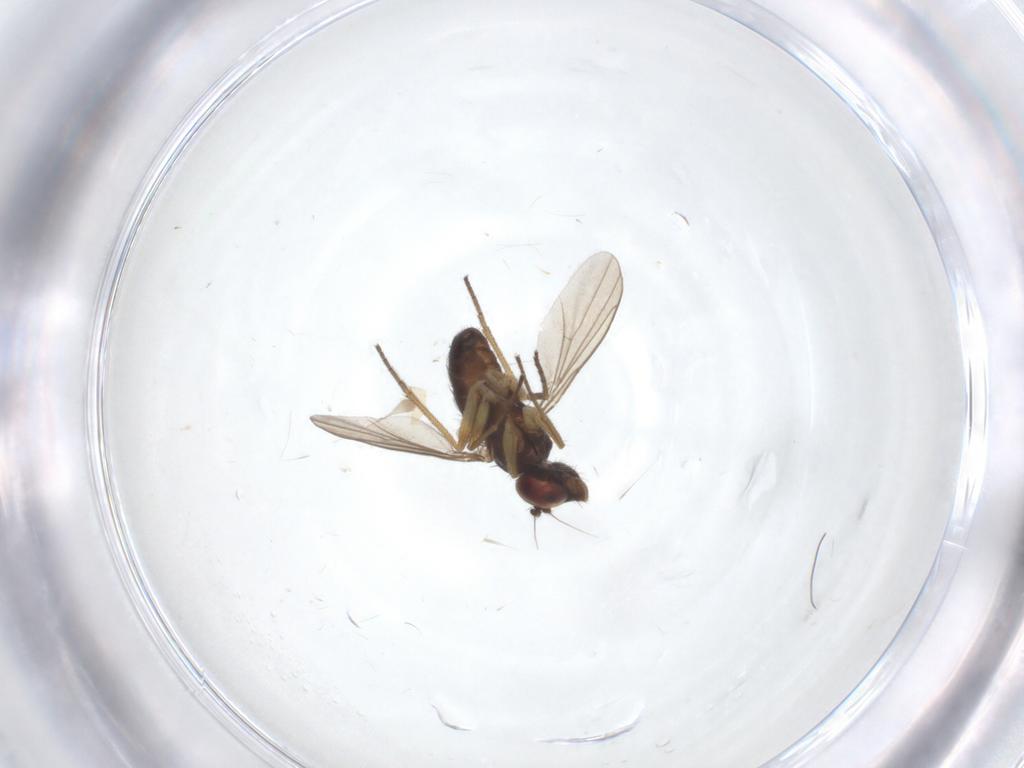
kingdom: Animalia
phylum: Arthropoda
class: Insecta
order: Diptera
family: Dolichopodidae
